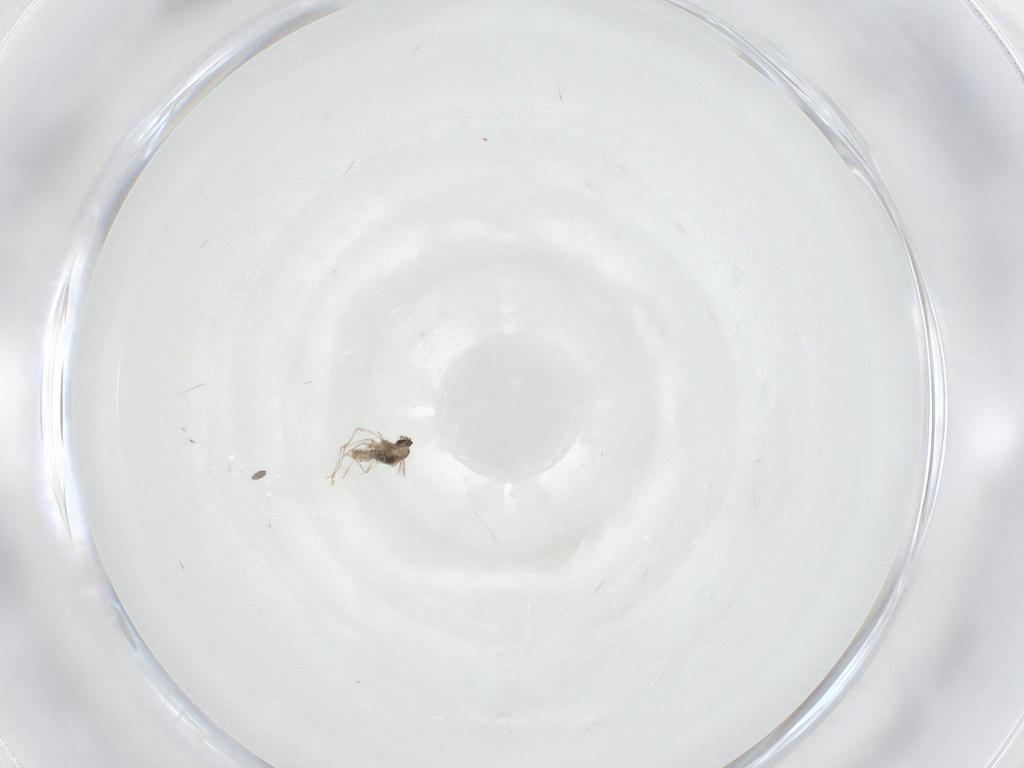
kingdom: Animalia
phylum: Arthropoda
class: Insecta
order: Diptera
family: Cecidomyiidae
